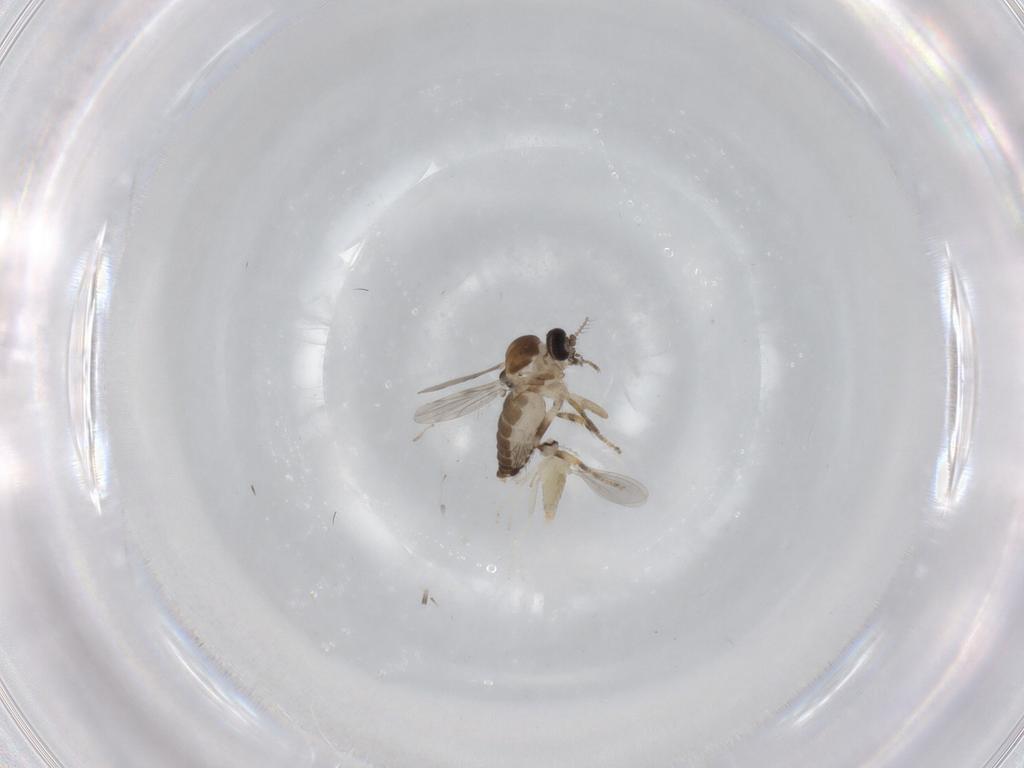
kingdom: Animalia
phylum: Arthropoda
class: Insecta
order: Diptera
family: Ceratopogonidae
